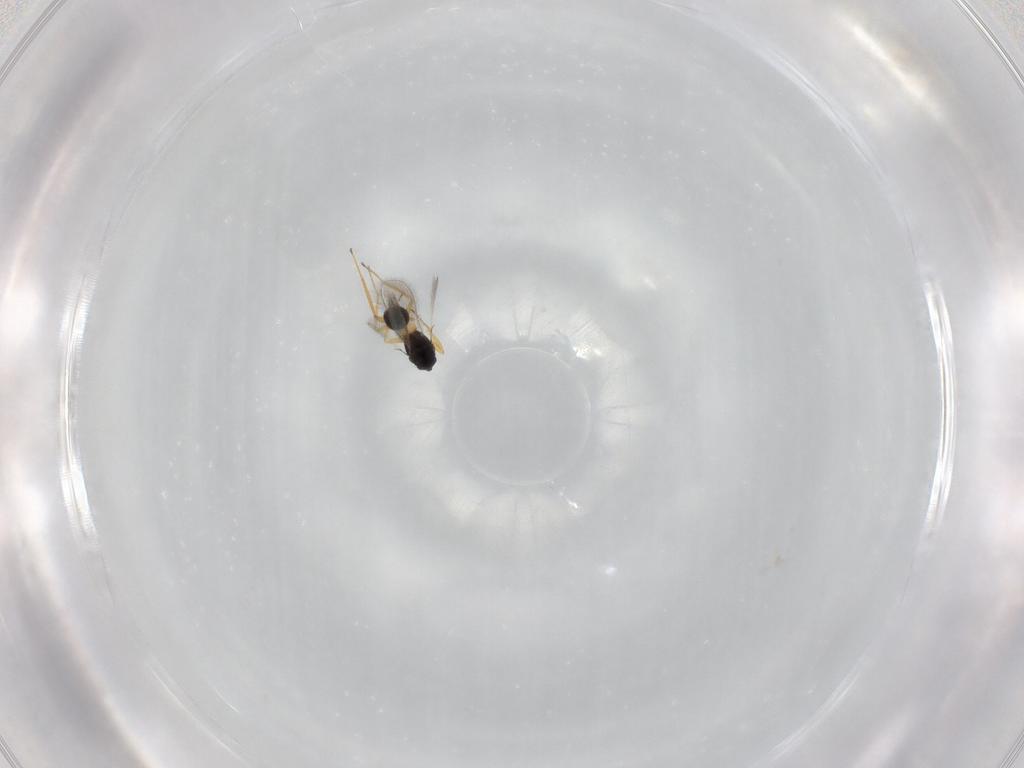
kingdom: Animalia
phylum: Arthropoda
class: Insecta
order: Hymenoptera
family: Mymaridae
